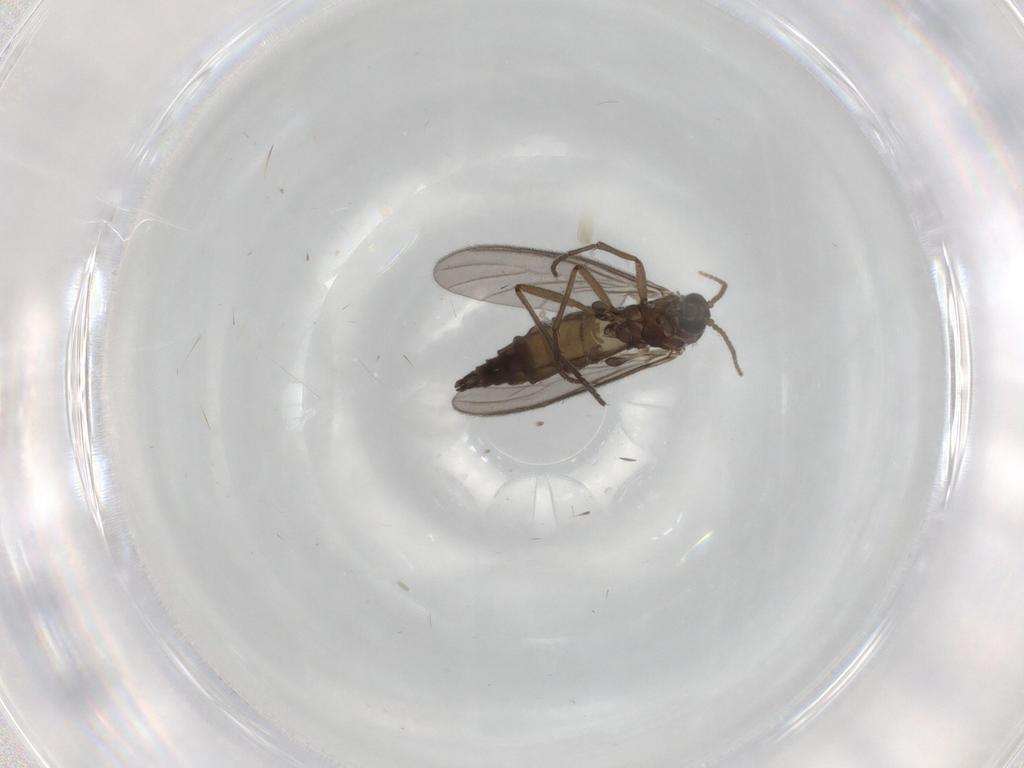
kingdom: Animalia
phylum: Arthropoda
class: Insecta
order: Diptera
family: Sciaridae
